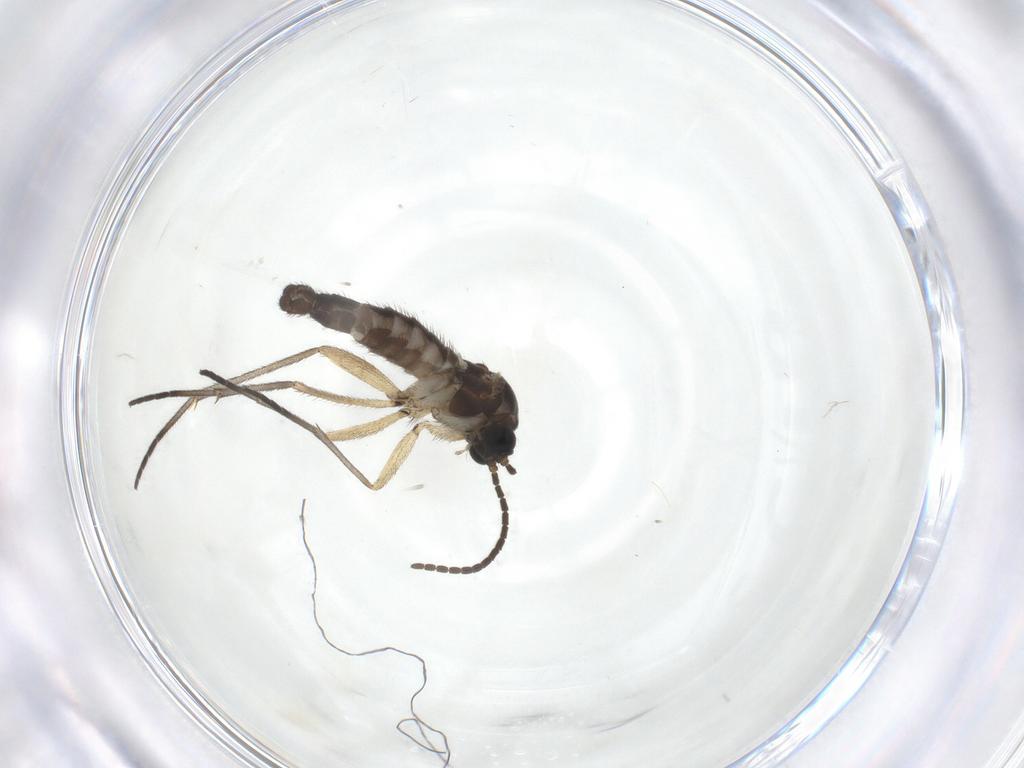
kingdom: Animalia
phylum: Arthropoda
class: Insecta
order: Diptera
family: Sciaridae
